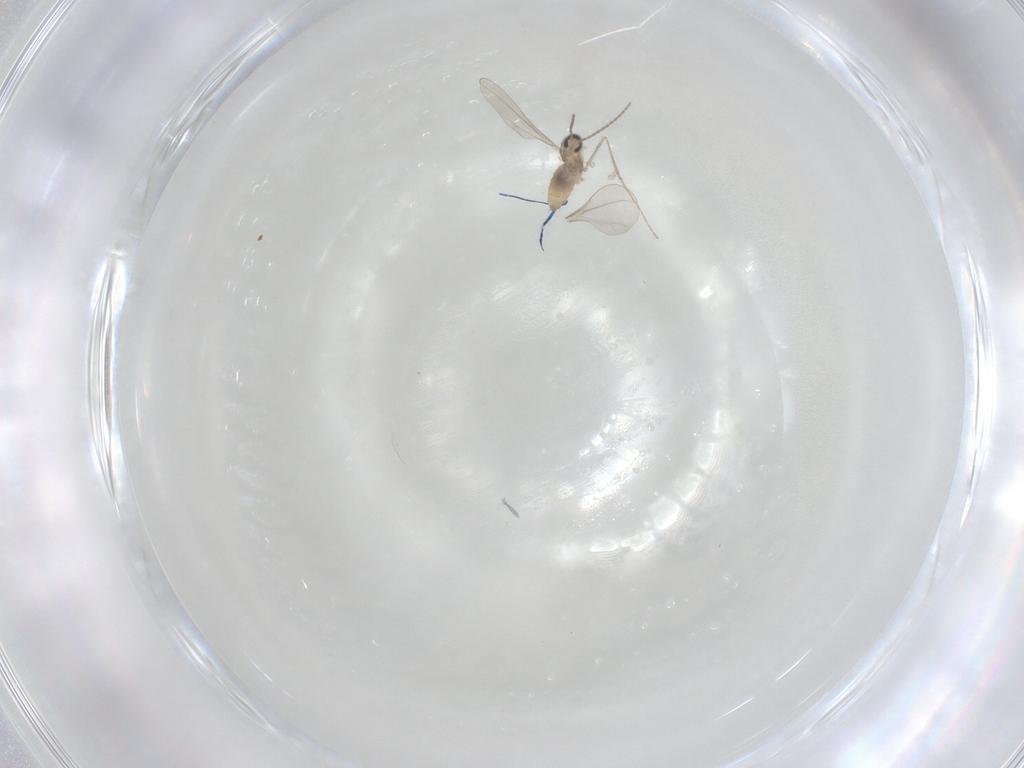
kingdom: Animalia
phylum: Arthropoda
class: Insecta
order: Diptera
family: Cecidomyiidae
